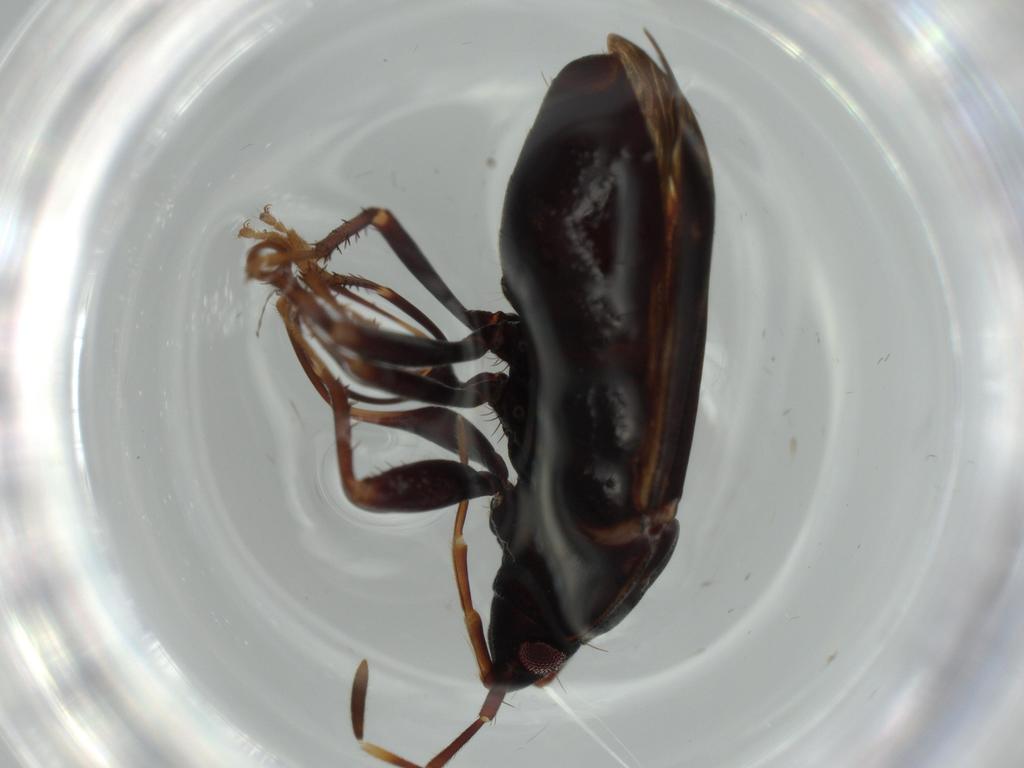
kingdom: Animalia
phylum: Arthropoda
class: Insecta
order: Hemiptera
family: Rhyparochromidae
